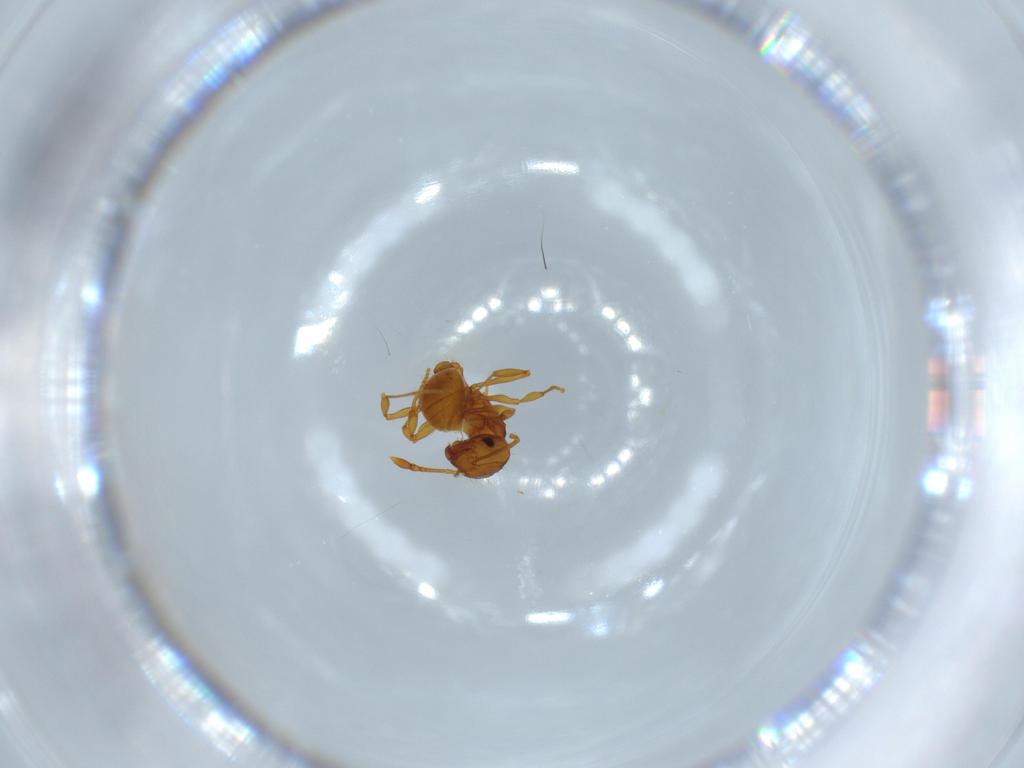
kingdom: Animalia
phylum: Arthropoda
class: Insecta
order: Hymenoptera
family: Formicidae
